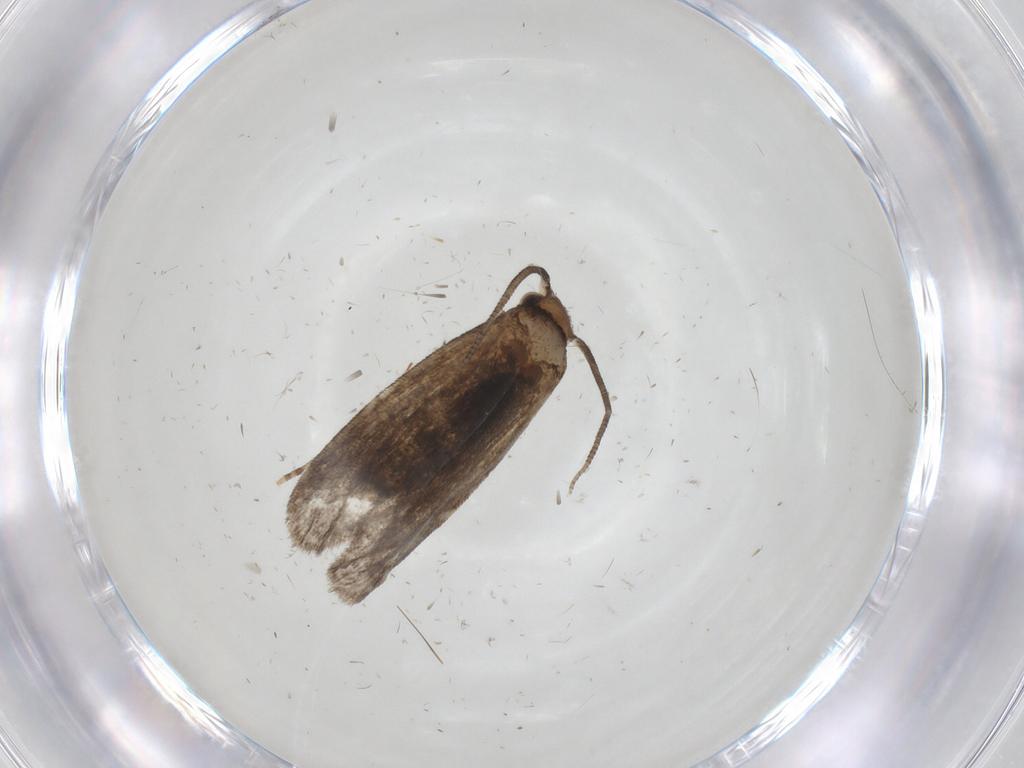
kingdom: Animalia
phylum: Arthropoda
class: Insecta
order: Lepidoptera
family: Dryadaulidae
